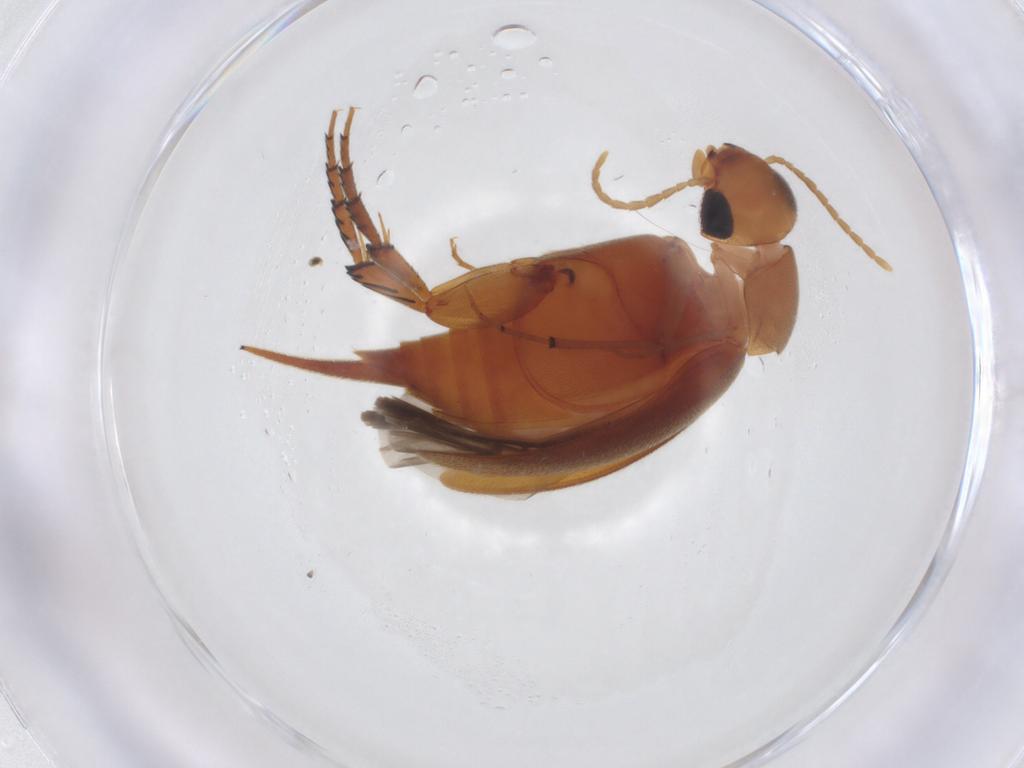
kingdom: Animalia
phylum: Arthropoda
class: Insecta
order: Coleoptera
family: Mordellidae
